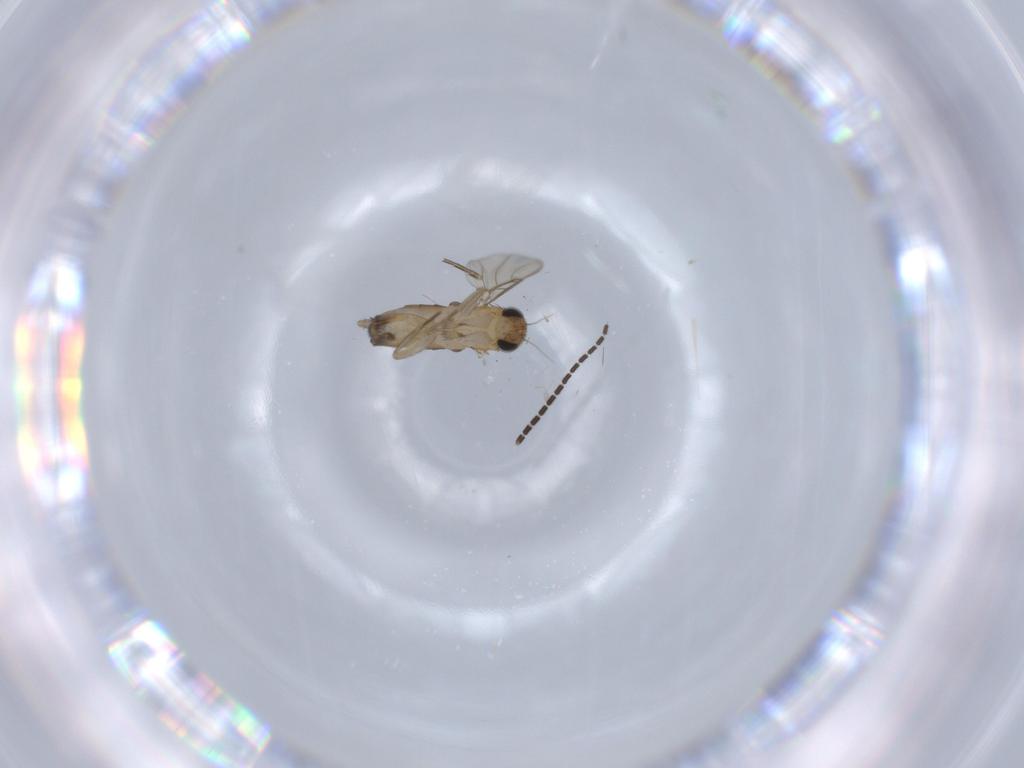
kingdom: Animalia
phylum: Arthropoda
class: Insecta
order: Diptera
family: Phoridae
